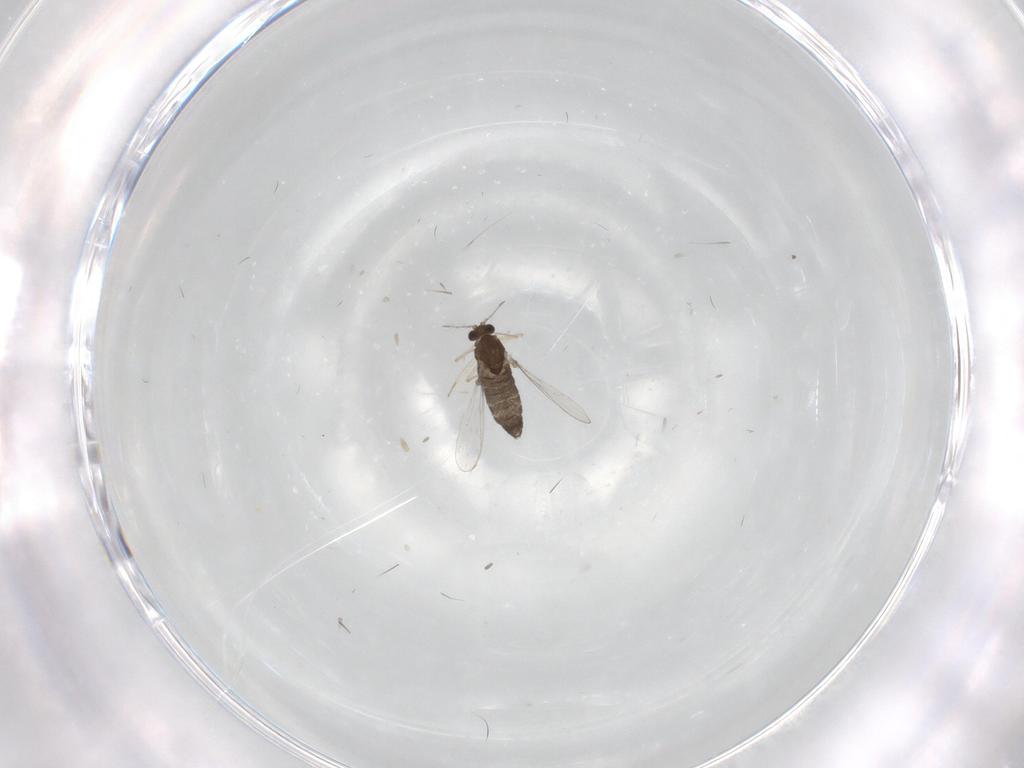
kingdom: Animalia
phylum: Arthropoda
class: Insecta
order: Diptera
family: Chironomidae
